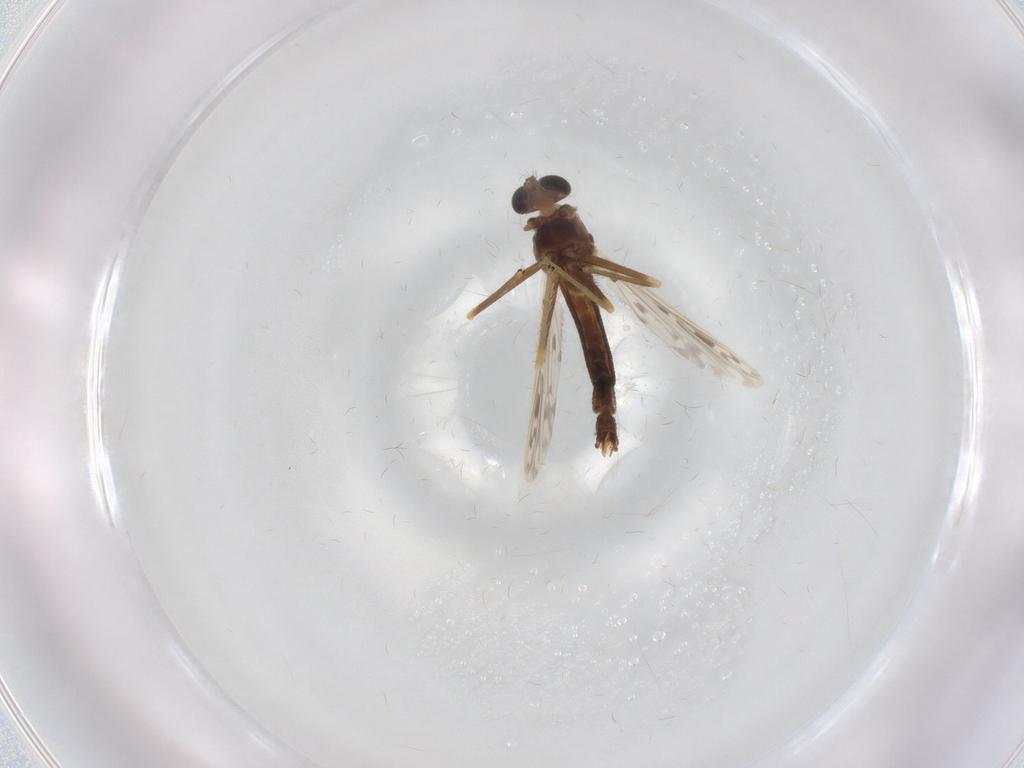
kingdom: Animalia
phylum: Arthropoda
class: Insecta
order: Diptera
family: Chironomidae
